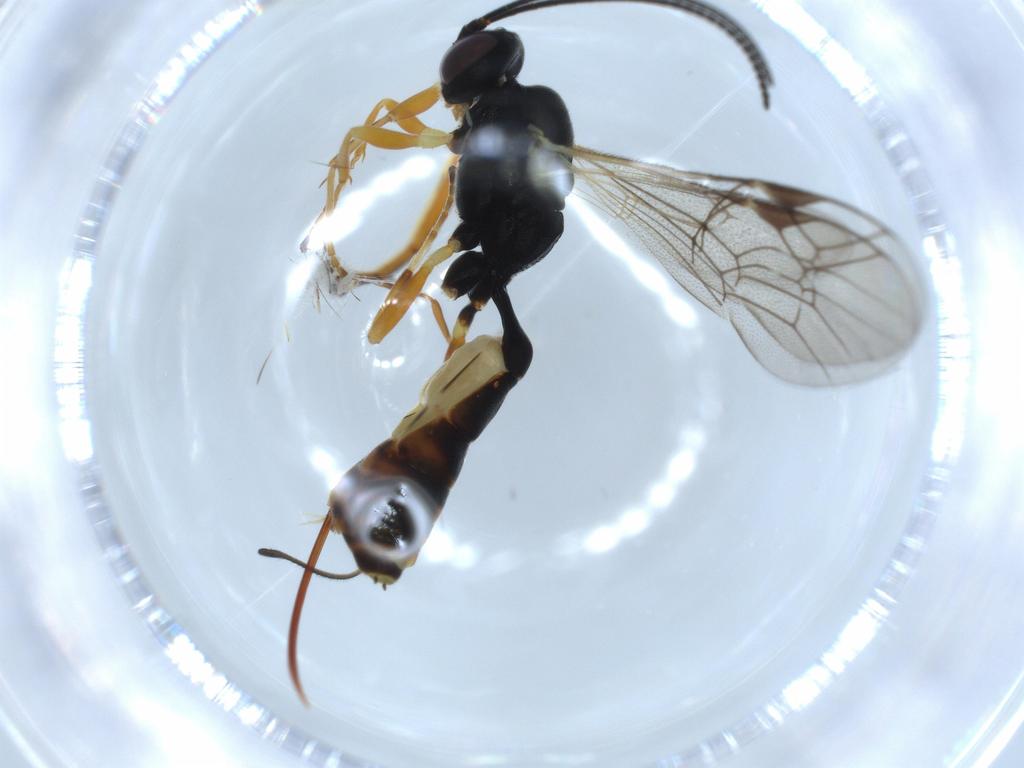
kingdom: Animalia
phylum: Arthropoda
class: Insecta
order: Hymenoptera
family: Ichneumonidae
